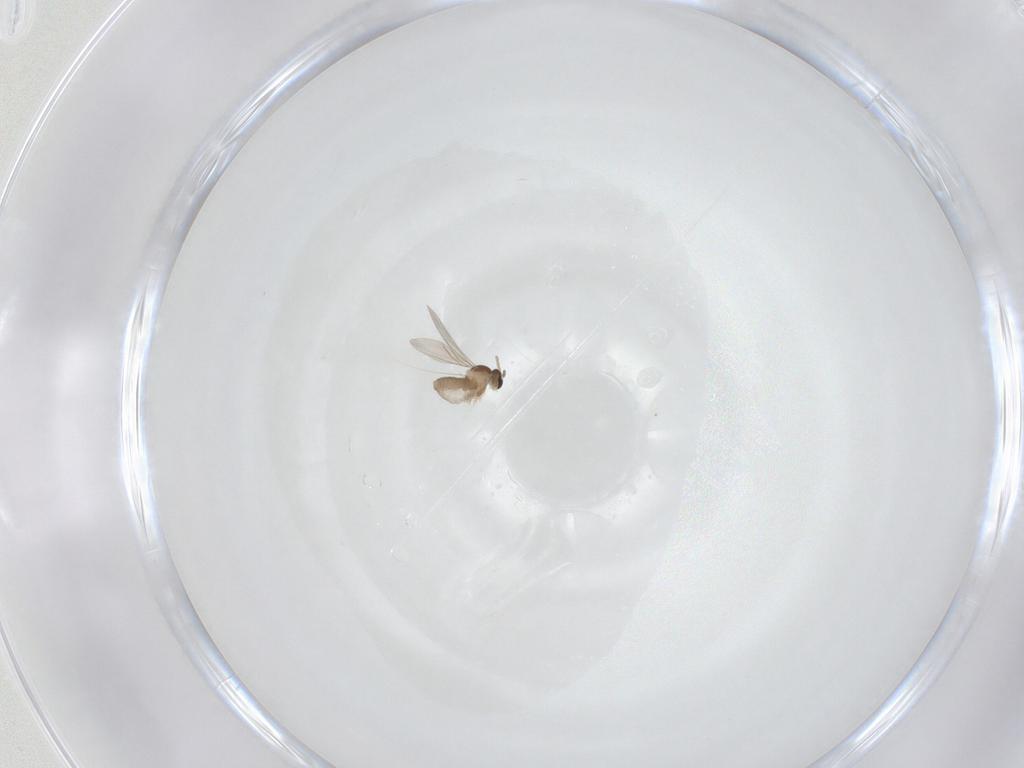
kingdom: Animalia
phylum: Arthropoda
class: Insecta
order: Diptera
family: Cecidomyiidae
